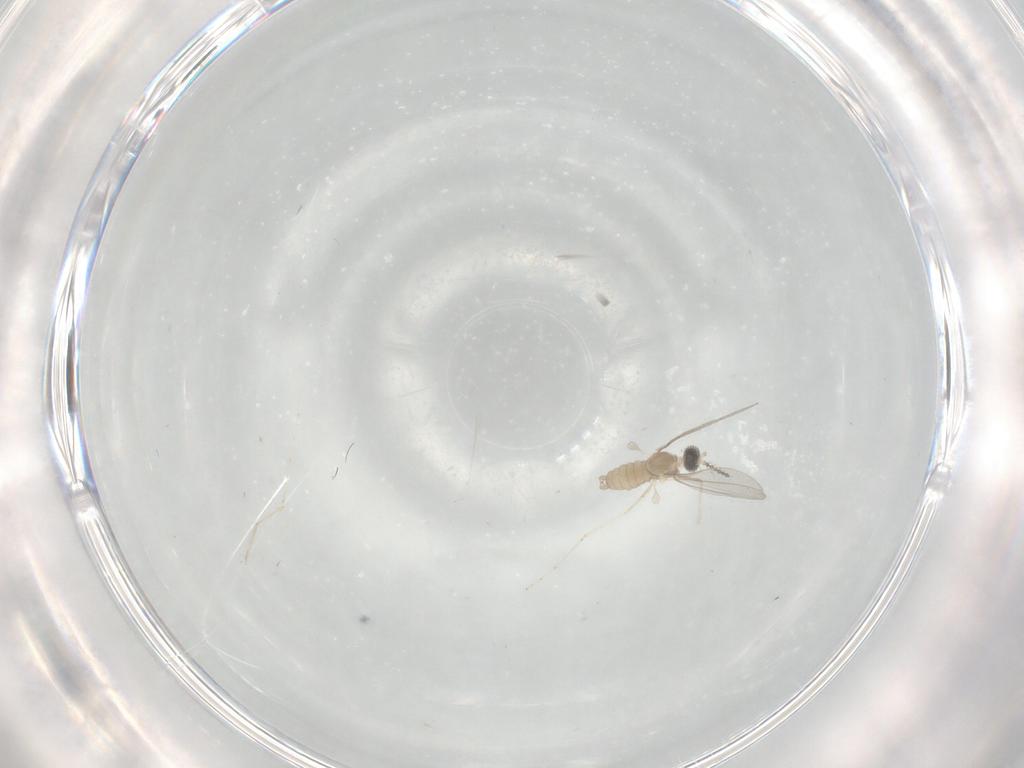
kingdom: Animalia
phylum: Arthropoda
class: Insecta
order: Diptera
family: Cecidomyiidae
